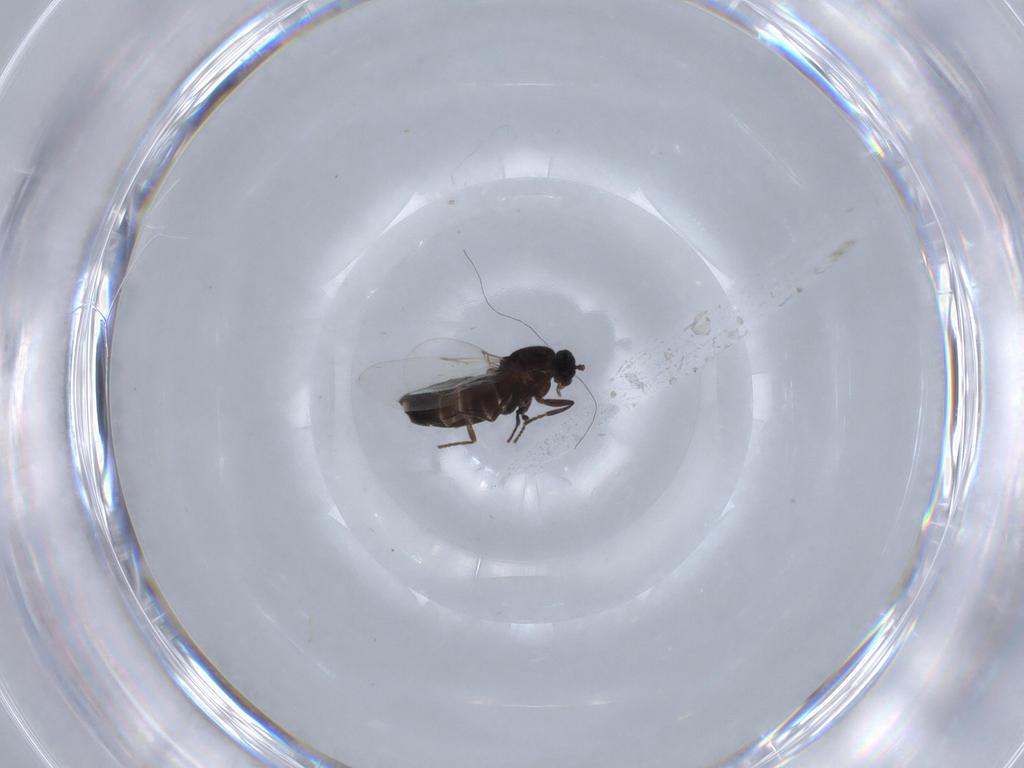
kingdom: Animalia
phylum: Arthropoda
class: Insecta
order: Diptera
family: Scatopsidae
